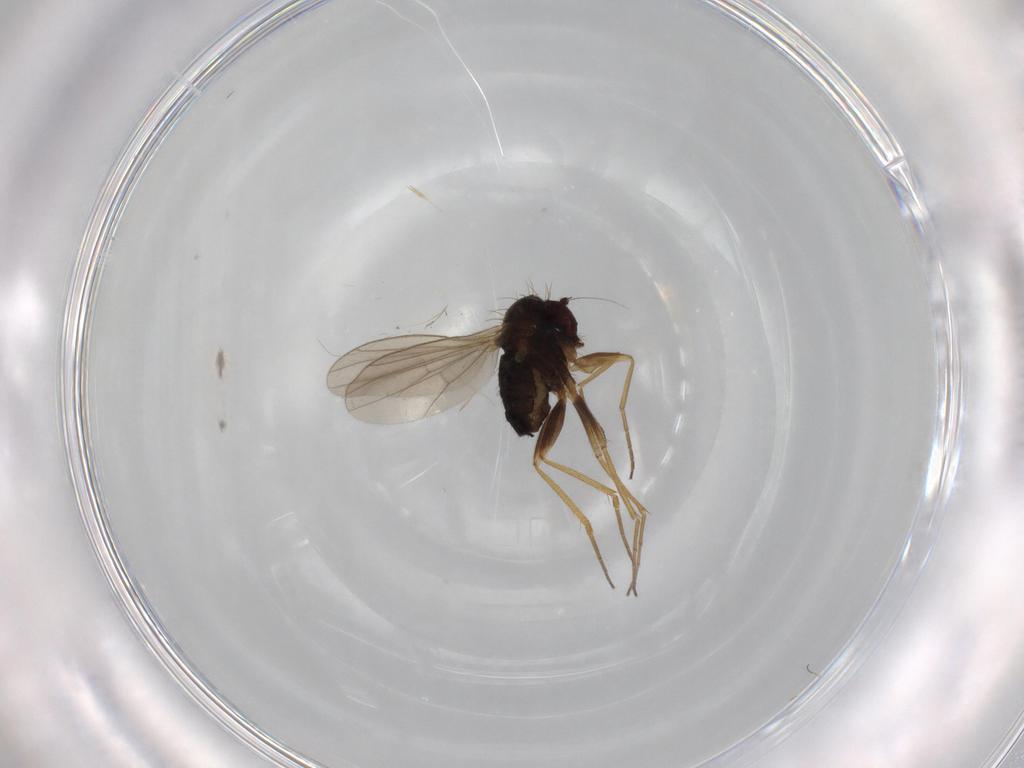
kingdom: Animalia
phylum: Arthropoda
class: Insecta
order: Diptera
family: Dolichopodidae
